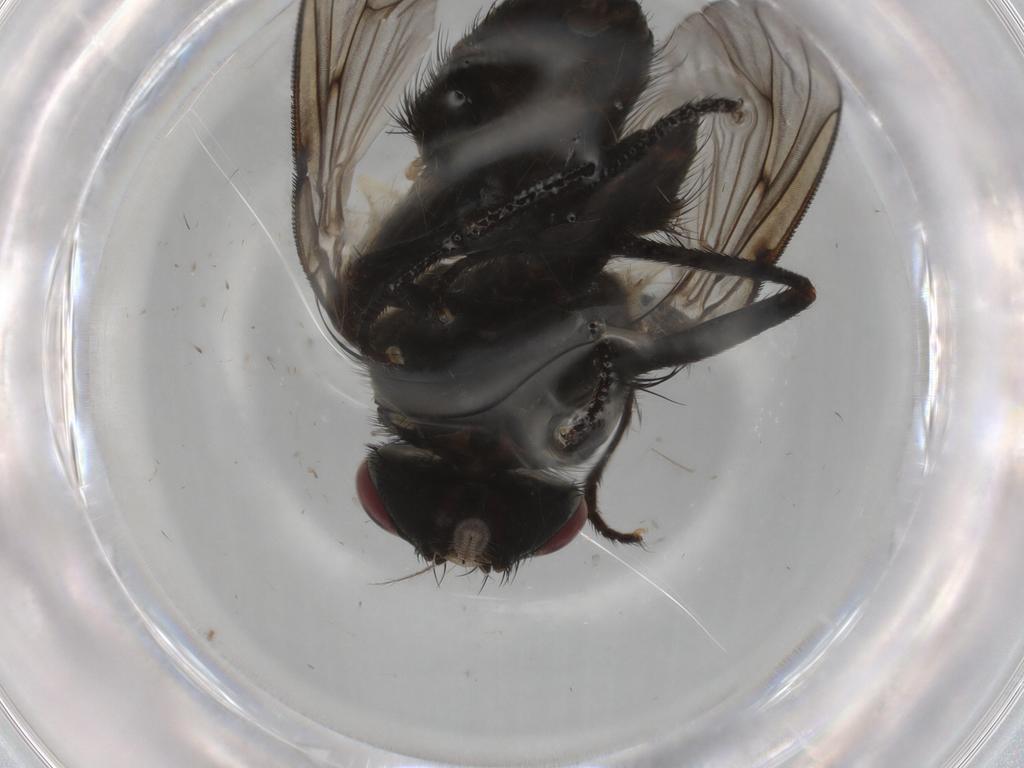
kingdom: Animalia
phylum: Arthropoda
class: Insecta
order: Diptera
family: Muscidae
